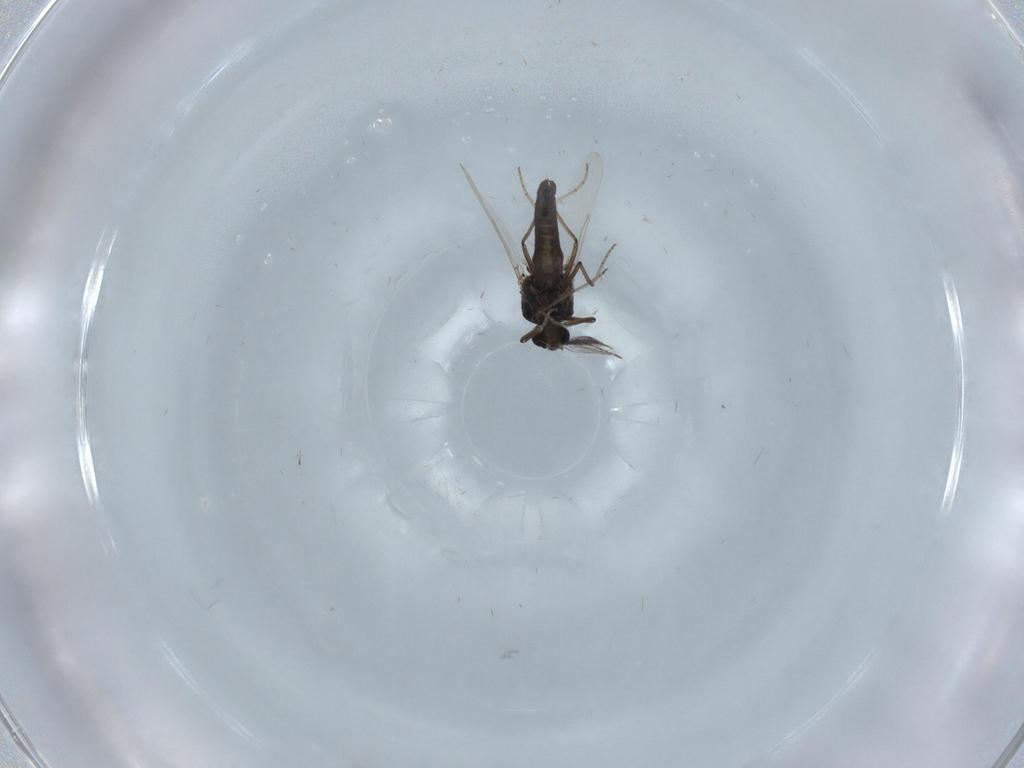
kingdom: Animalia
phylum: Arthropoda
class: Insecta
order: Diptera
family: Ceratopogonidae
